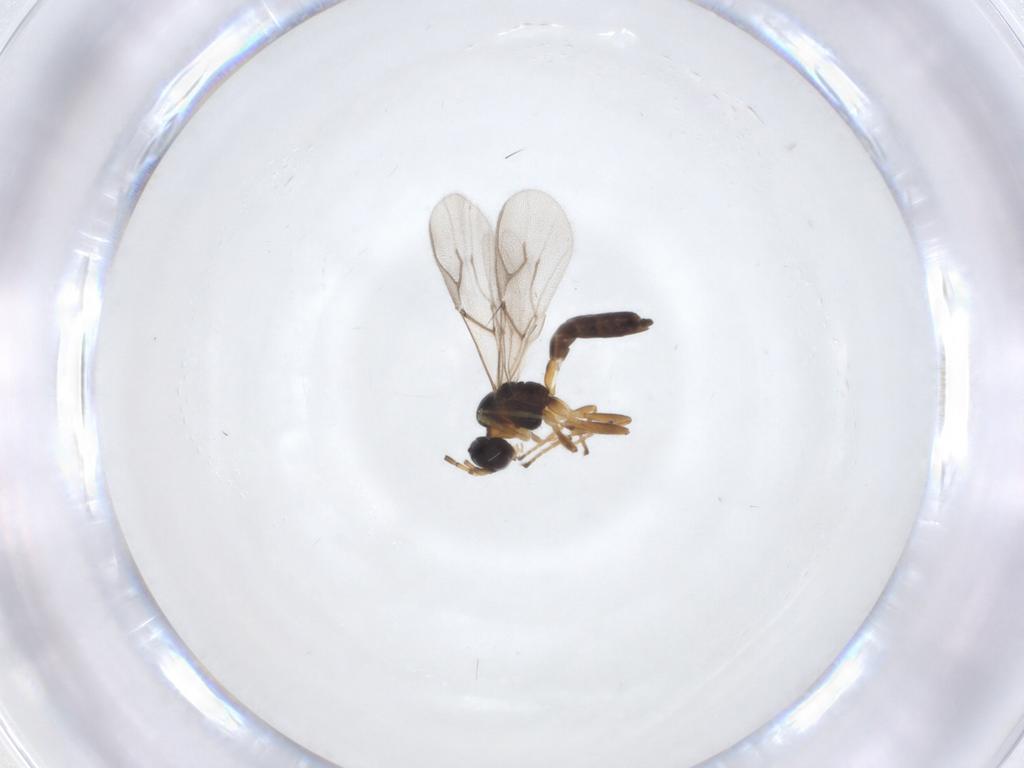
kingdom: Animalia
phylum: Arthropoda
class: Insecta
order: Hymenoptera
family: Braconidae
